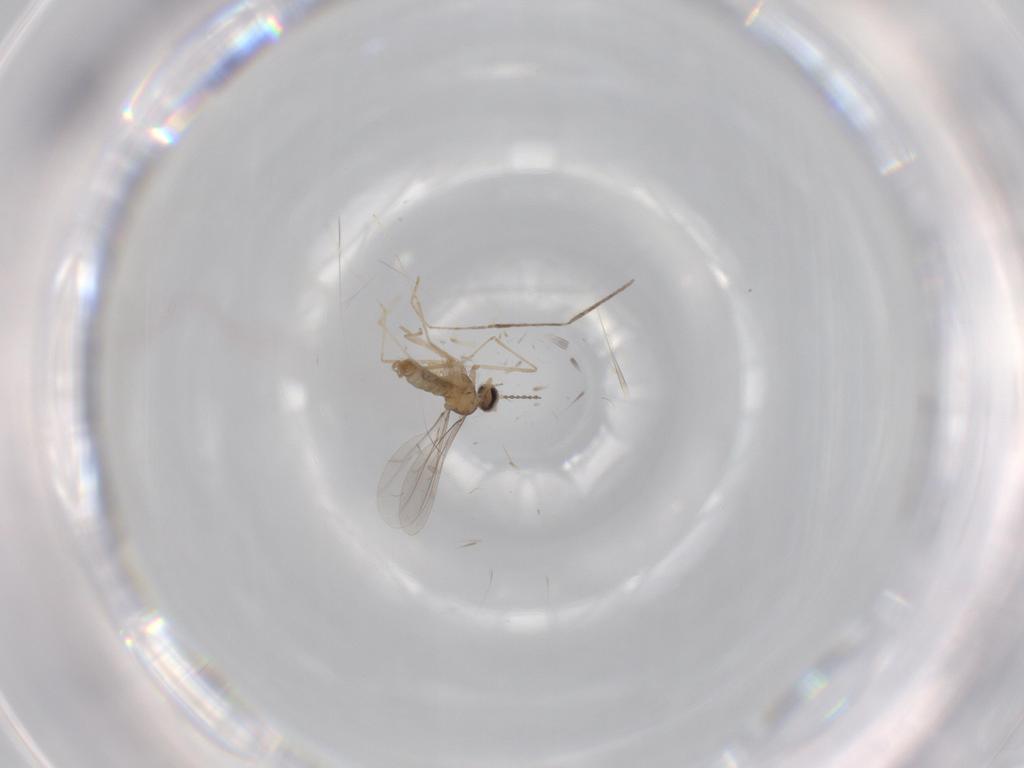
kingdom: Animalia
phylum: Arthropoda
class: Insecta
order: Diptera
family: Cecidomyiidae
